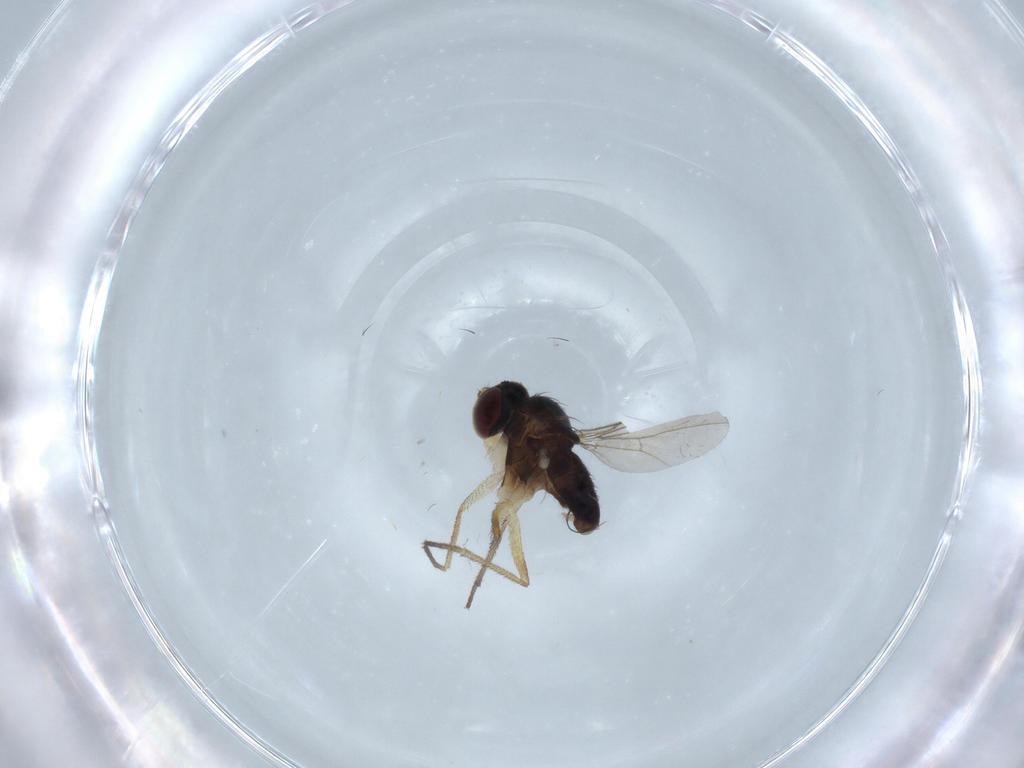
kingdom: Animalia
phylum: Arthropoda
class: Insecta
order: Diptera
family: Dolichopodidae
